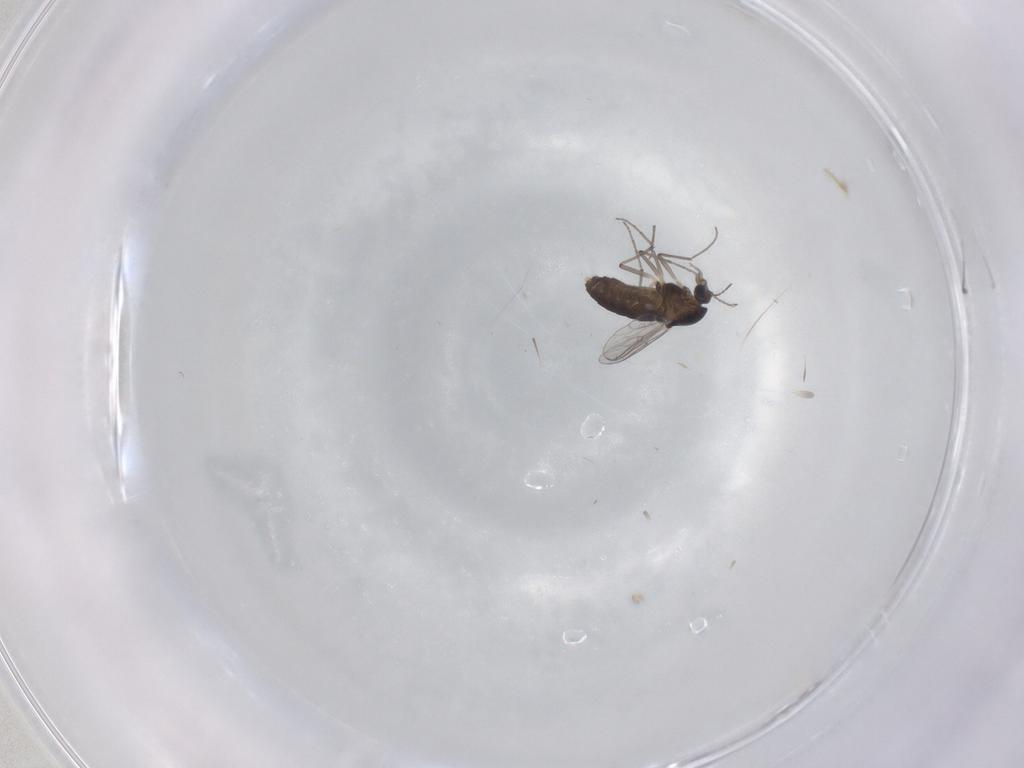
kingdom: Animalia
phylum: Arthropoda
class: Insecta
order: Diptera
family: Chironomidae
